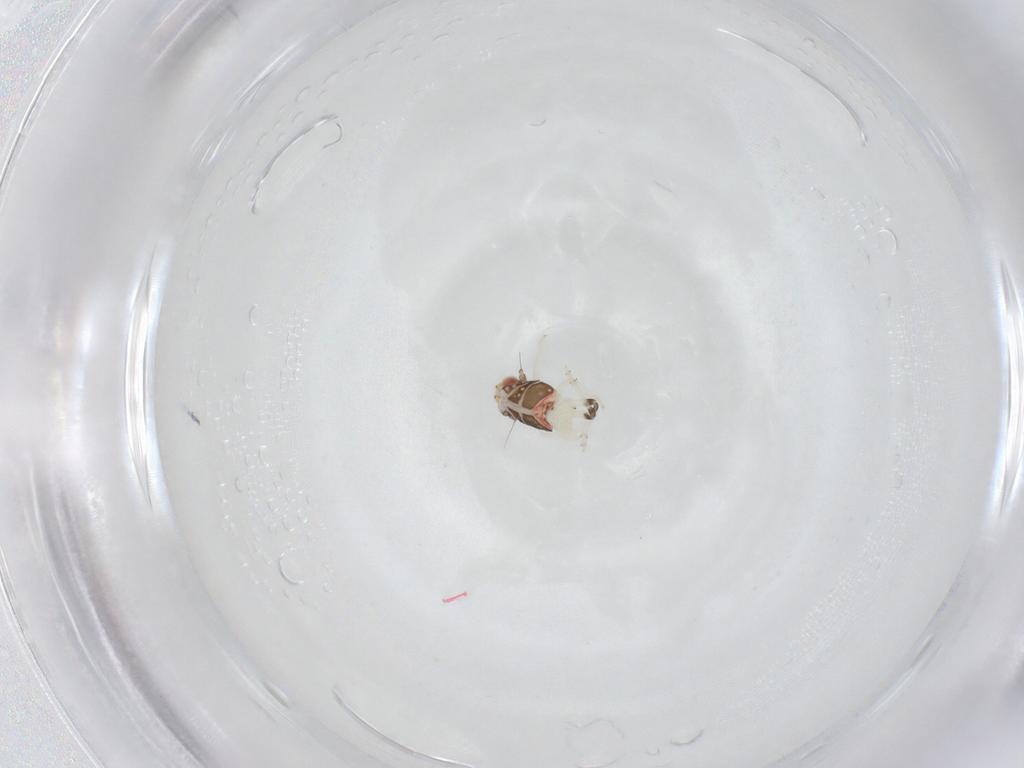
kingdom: Animalia
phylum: Arthropoda
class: Insecta
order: Hemiptera
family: Nogodinidae
